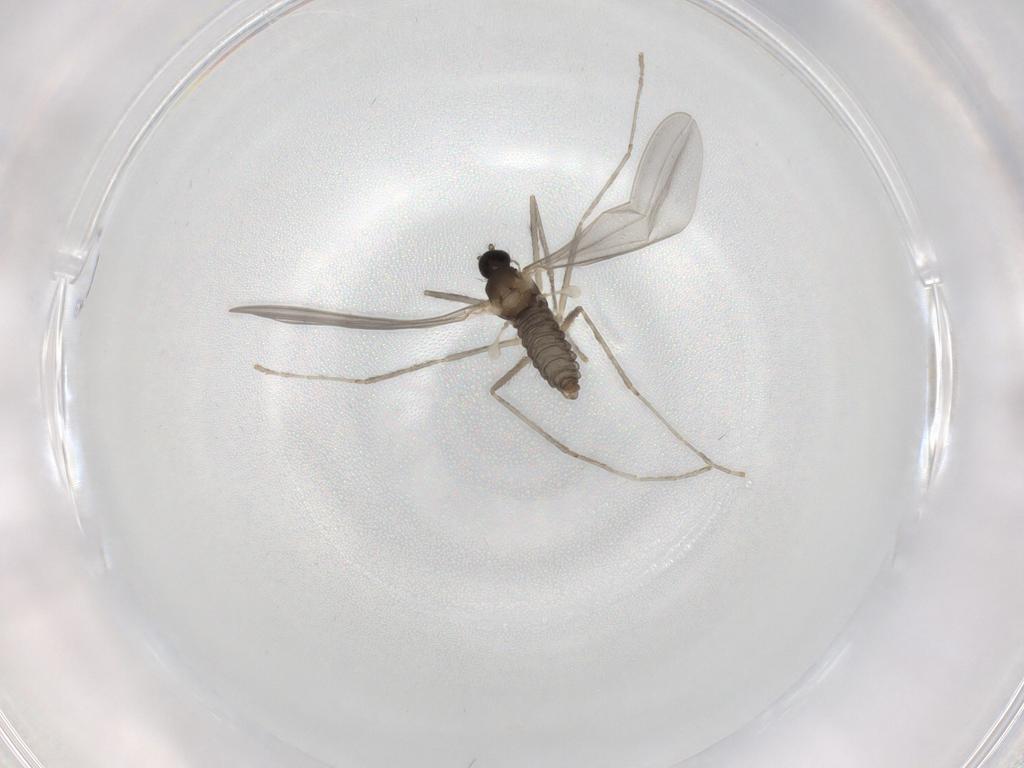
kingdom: Animalia
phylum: Arthropoda
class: Insecta
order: Diptera
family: Cecidomyiidae
